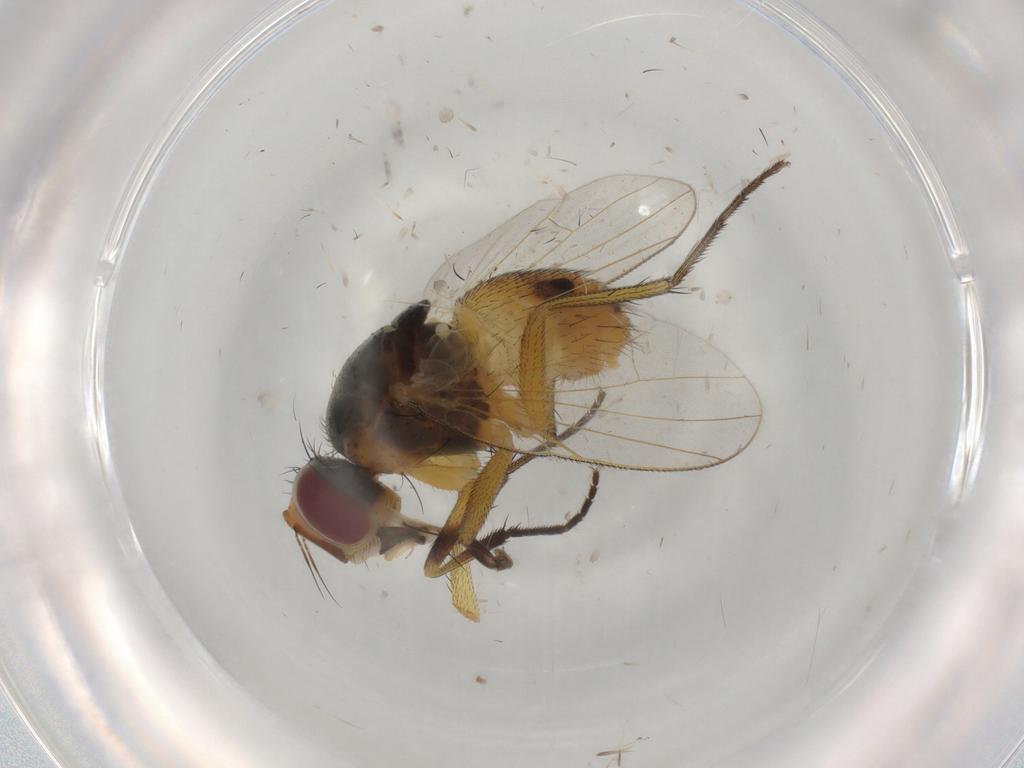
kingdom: Animalia
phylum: Arthropoda
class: Insecta
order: Diptera
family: Muscidae
